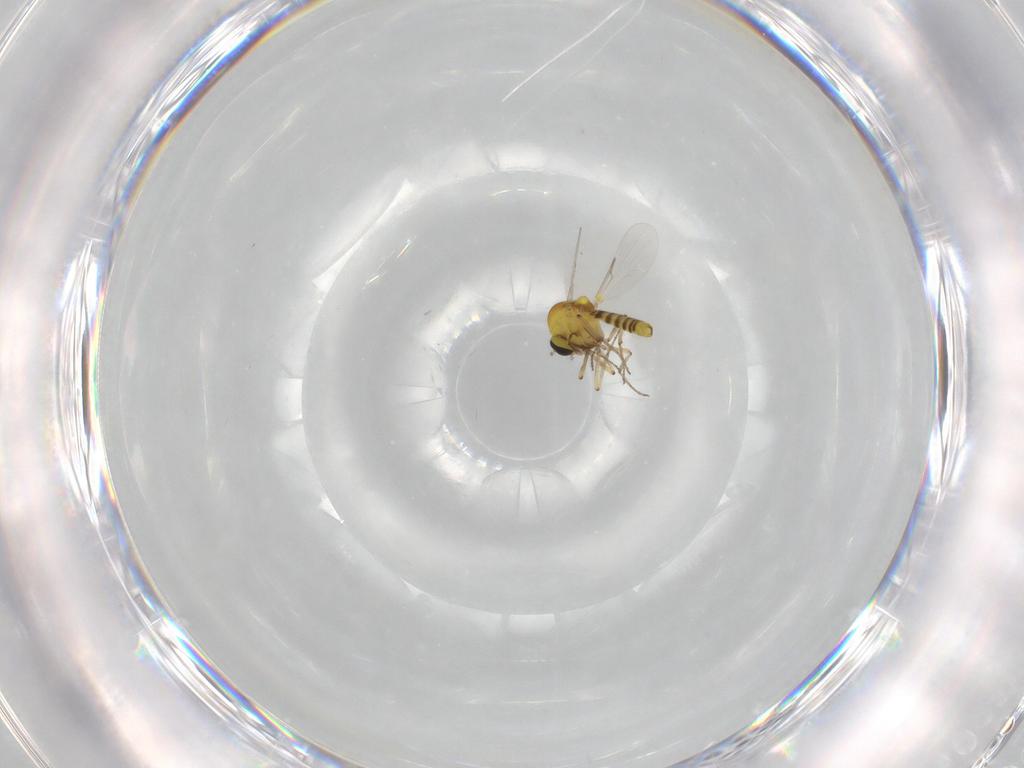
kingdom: Animalia
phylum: Arthropoda
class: Insecta
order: Diptera
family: Ceratopogonidae
